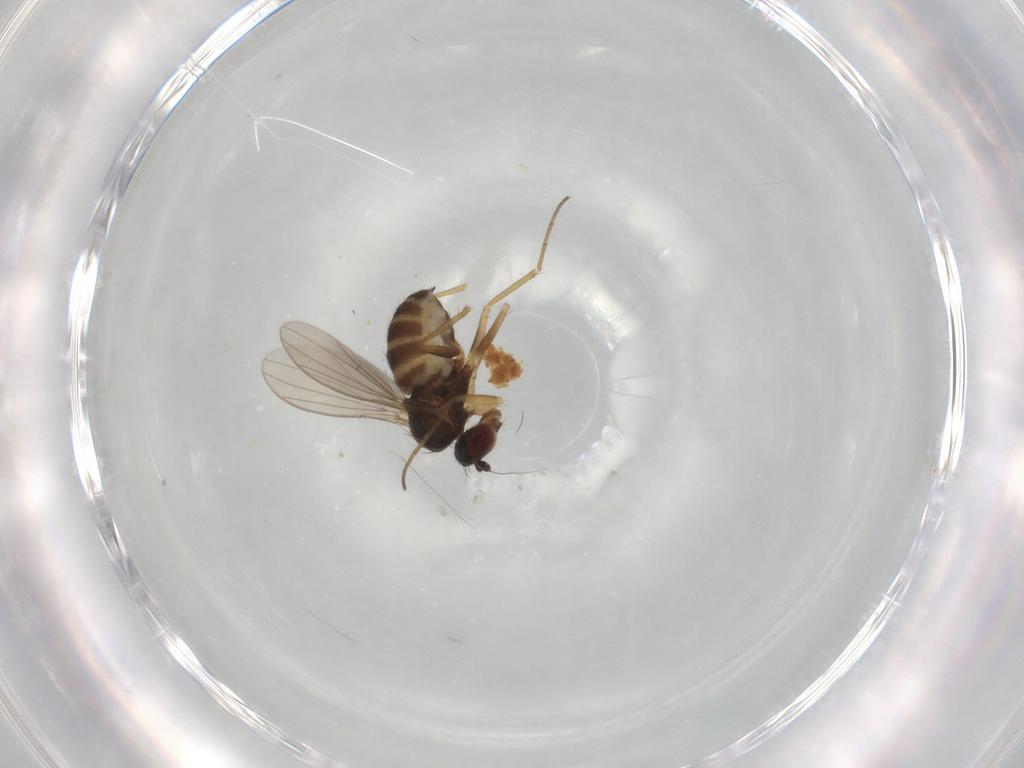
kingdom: Animalia
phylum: Arthropoda
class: Insecta
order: Diptera
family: Dolichopodidae
